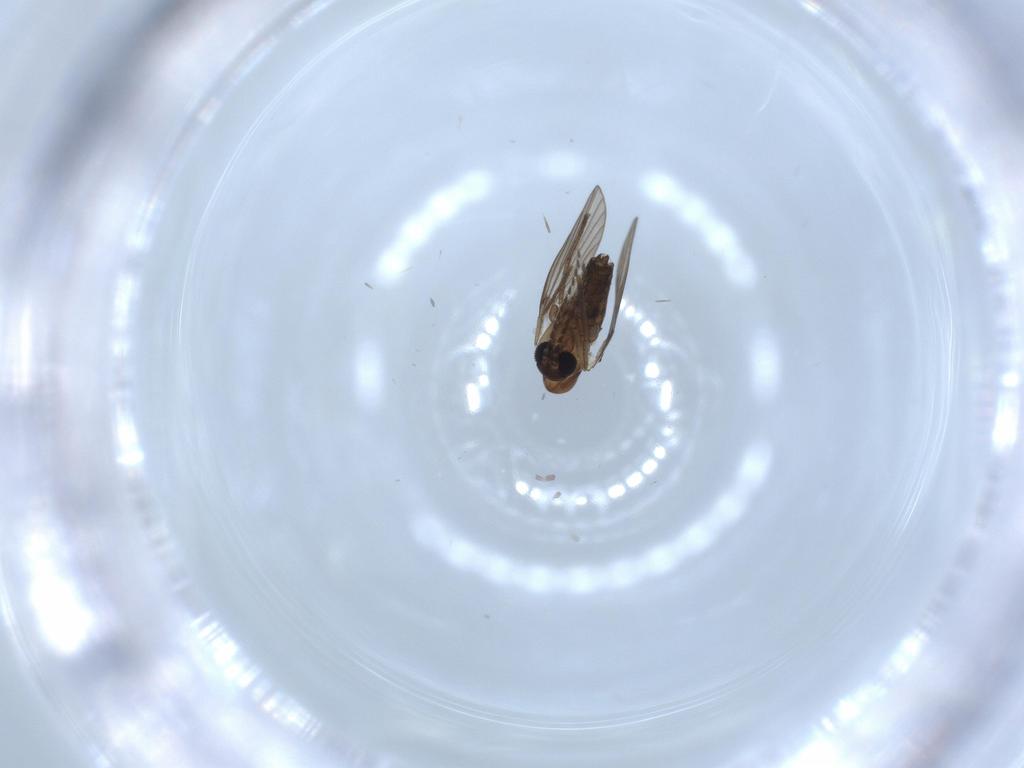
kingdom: Animalia
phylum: Arthropoda
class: Insecta
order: Diptera
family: Psychodidae
